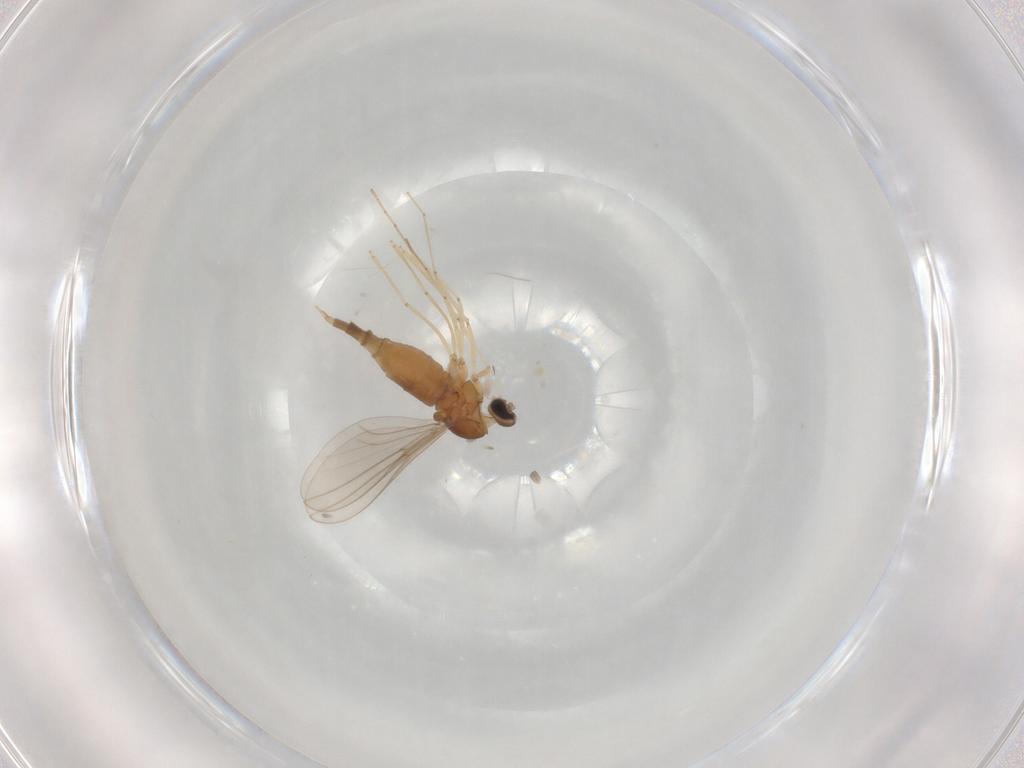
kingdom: Animalia
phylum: Arthropoda
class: Insecta
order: Diptera
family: Cecidomyiidae
